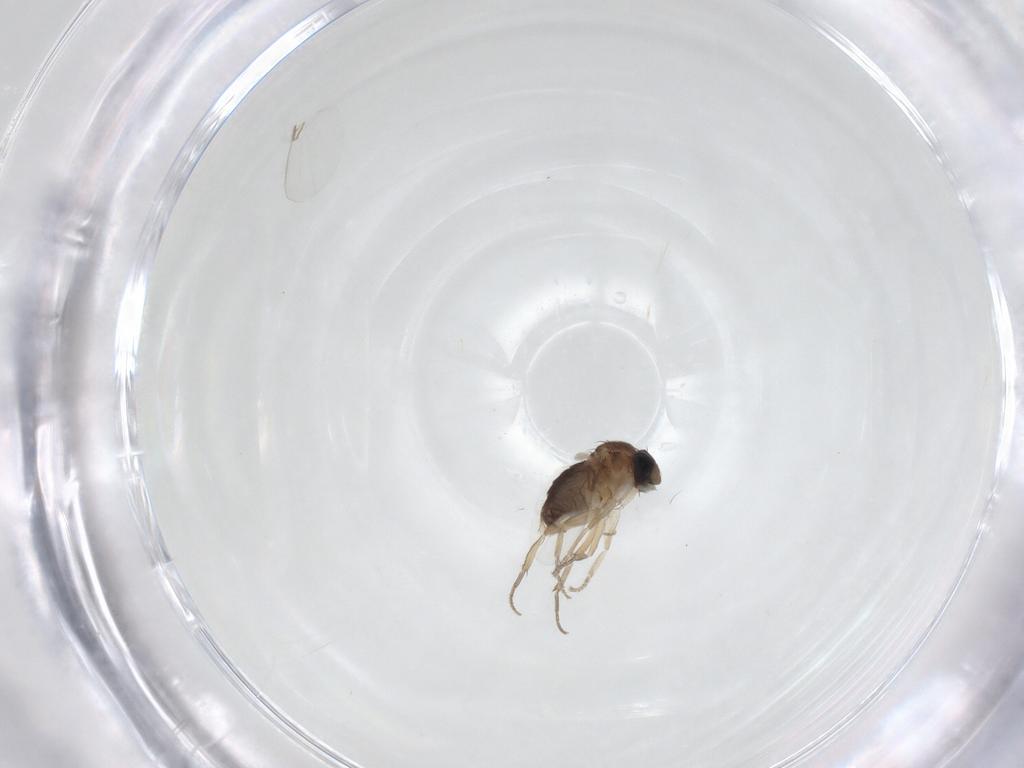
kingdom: Animalia
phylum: Arthropoda
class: Insecta
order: Diptera
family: Phoridae
